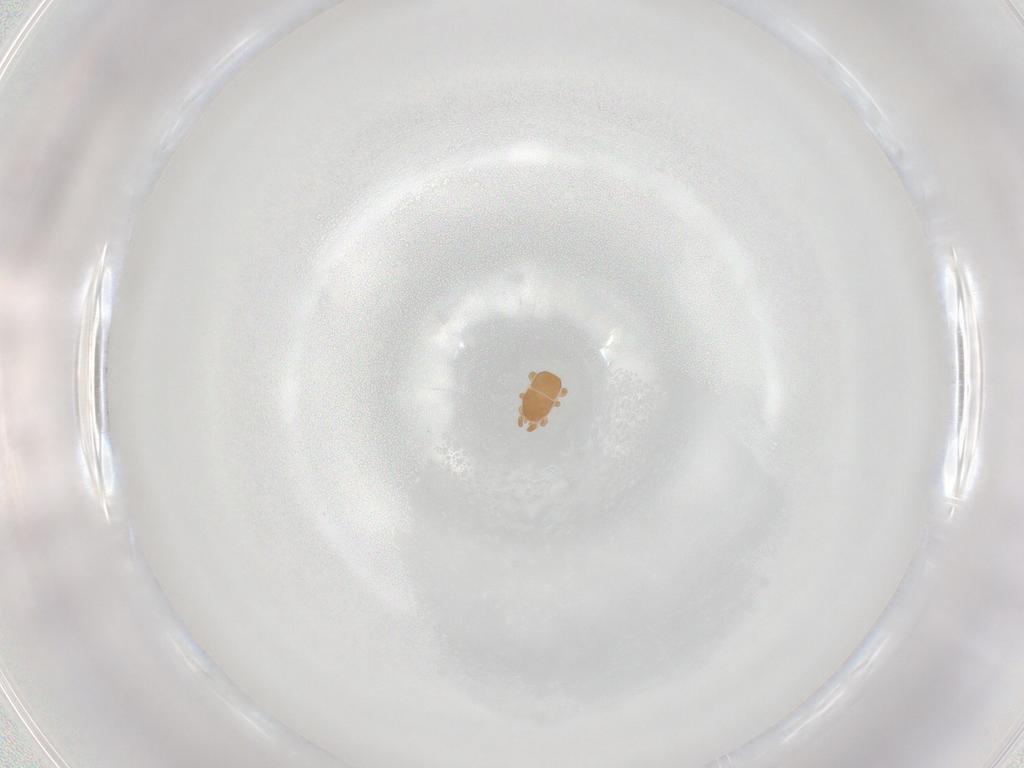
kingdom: Animalia
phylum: Arthropoda
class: Arachnida
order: Mesostigmata
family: Halolaelapidae
